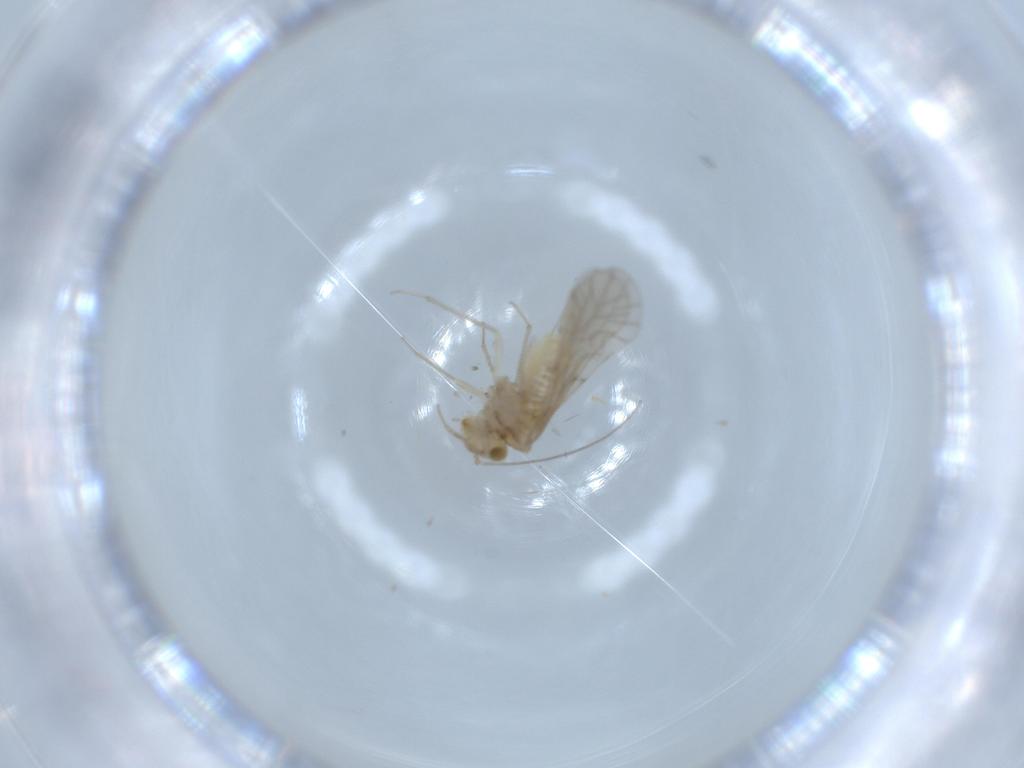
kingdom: Animalia
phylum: Arthropoda
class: Insecta
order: Psocodea
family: Lachesillidae
